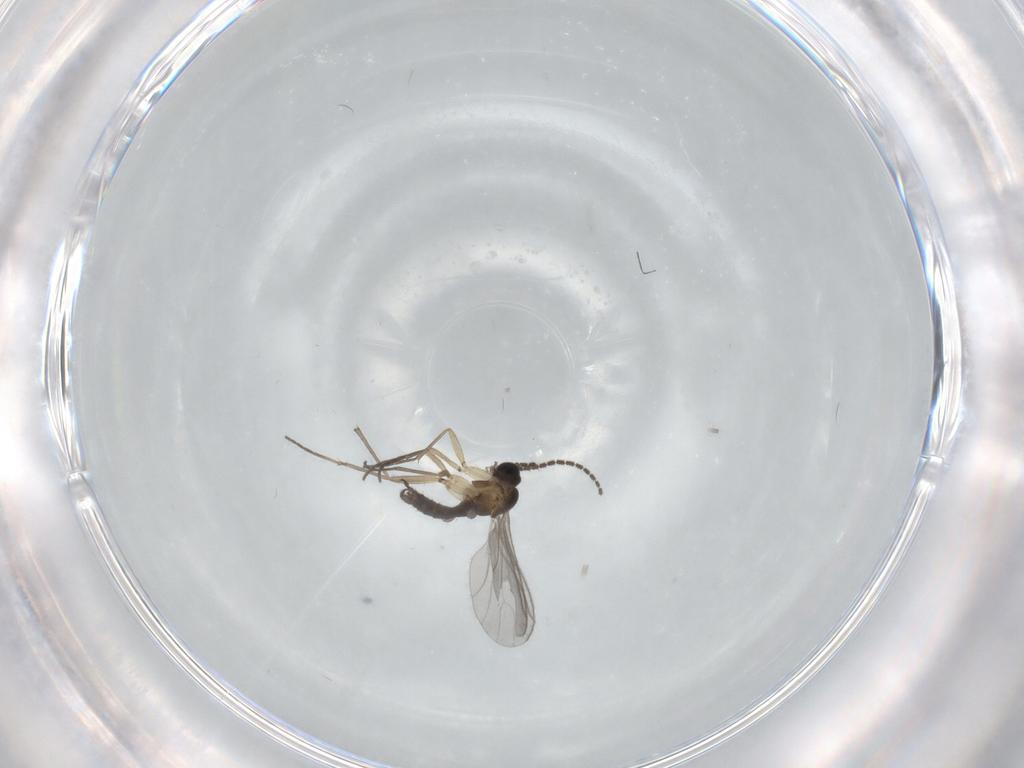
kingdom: Animalia
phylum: Arthropoda
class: Insecta
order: Diptera
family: Sciaridae
